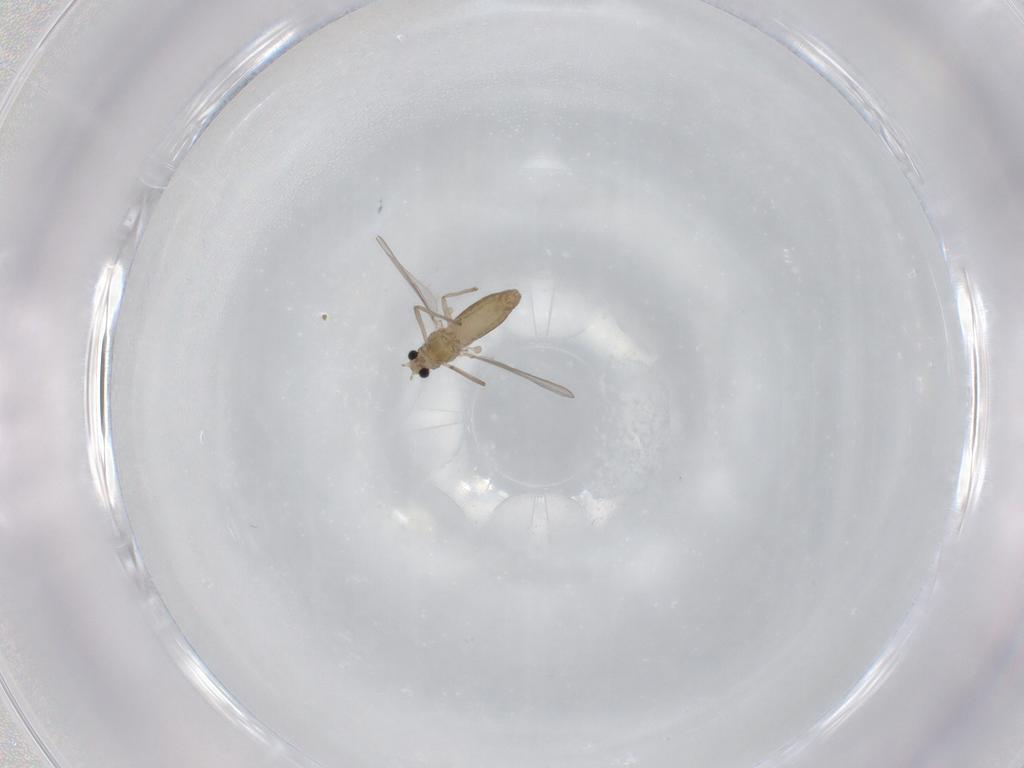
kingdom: Animalia
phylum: Arthropoda
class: Insecta
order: Diptera
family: Chironomidae
